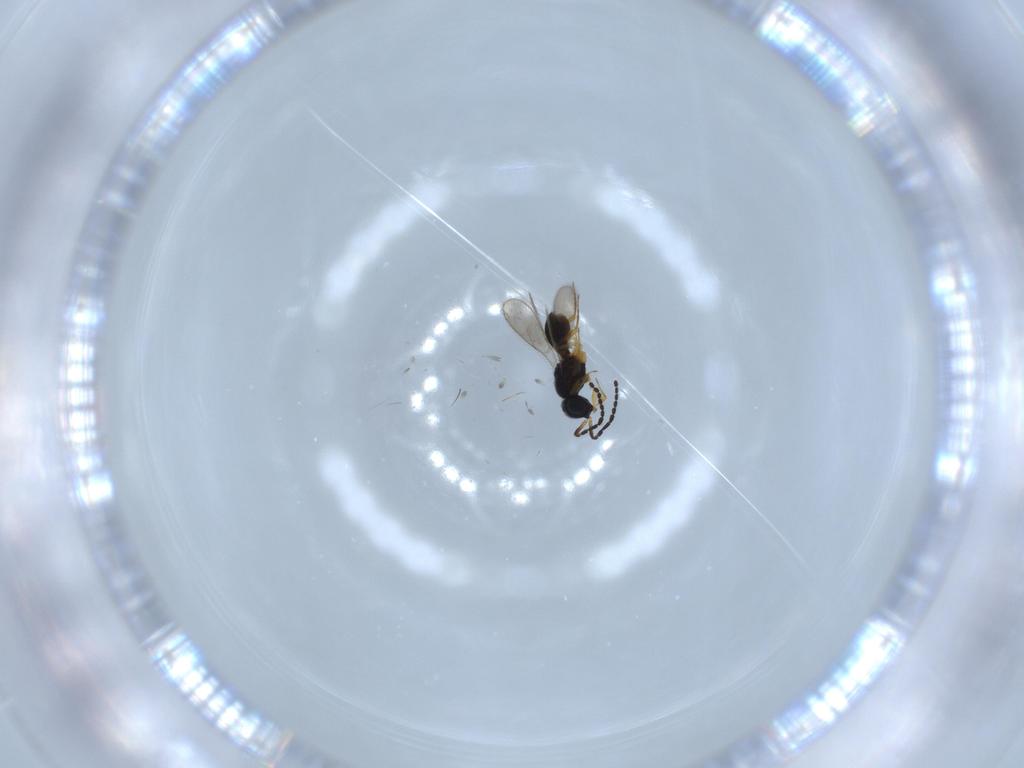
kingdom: Animalia
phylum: Arthropoda
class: Insecta
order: Hymenoptera
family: Scelionidae
